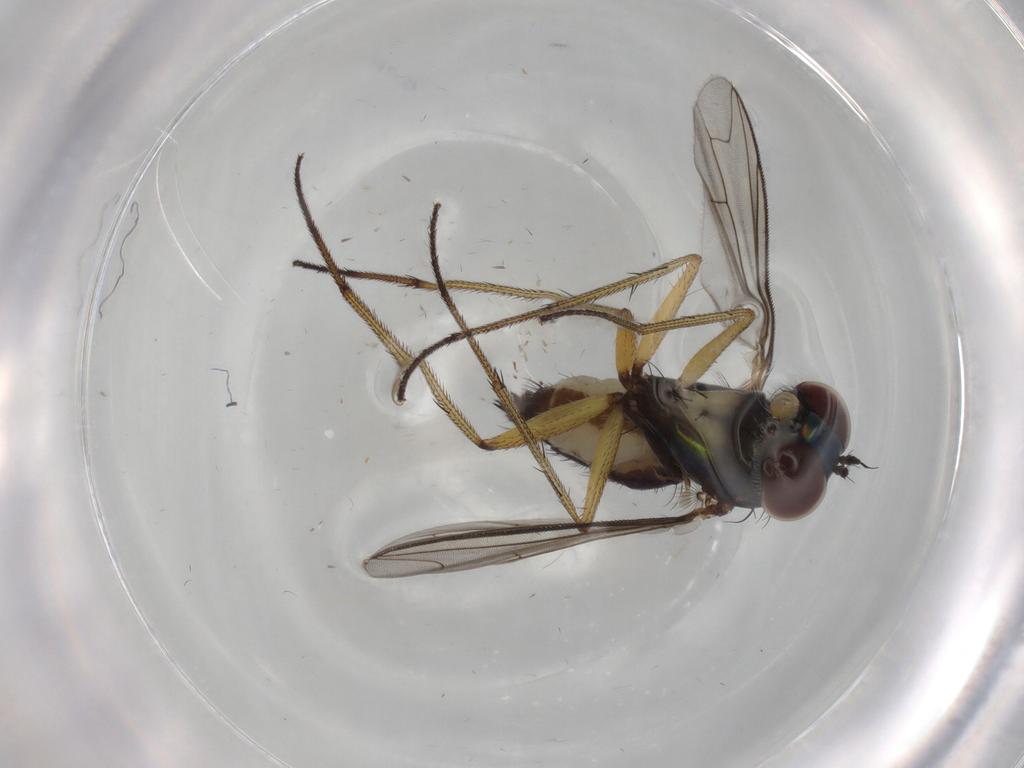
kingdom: Animalia
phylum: Arthropoda
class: Insecta
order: Diptera
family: Dolichopodidae
